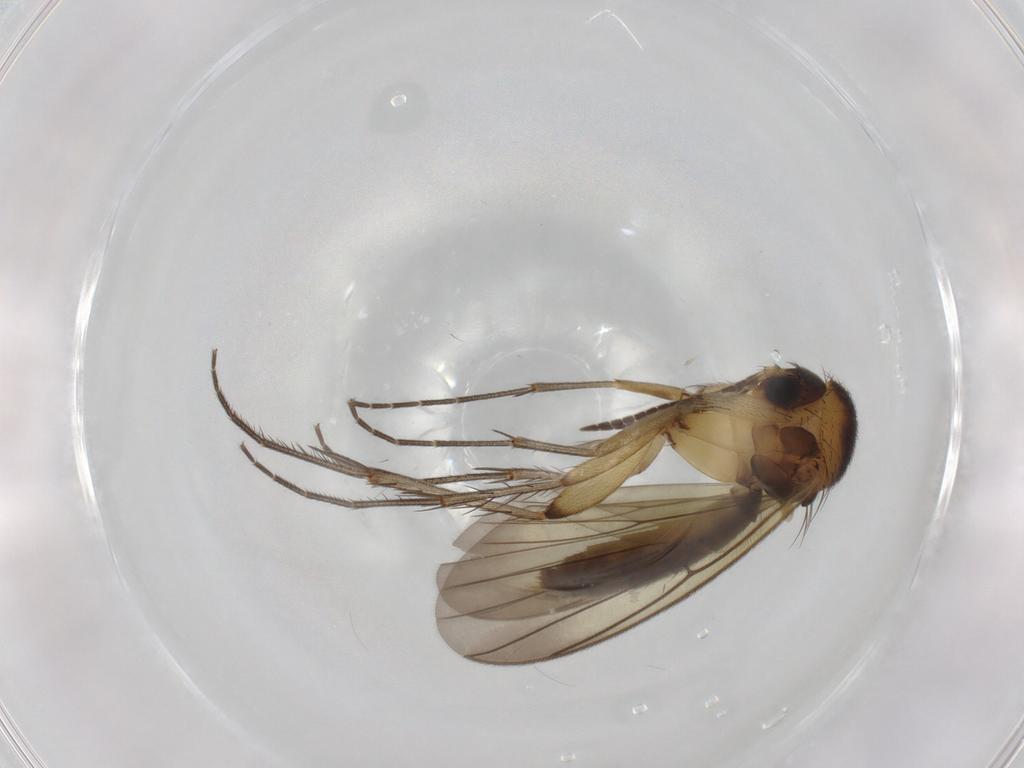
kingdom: Animalia
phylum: Arthropoda
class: Insecta
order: Diptera
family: Mycetophilidae
